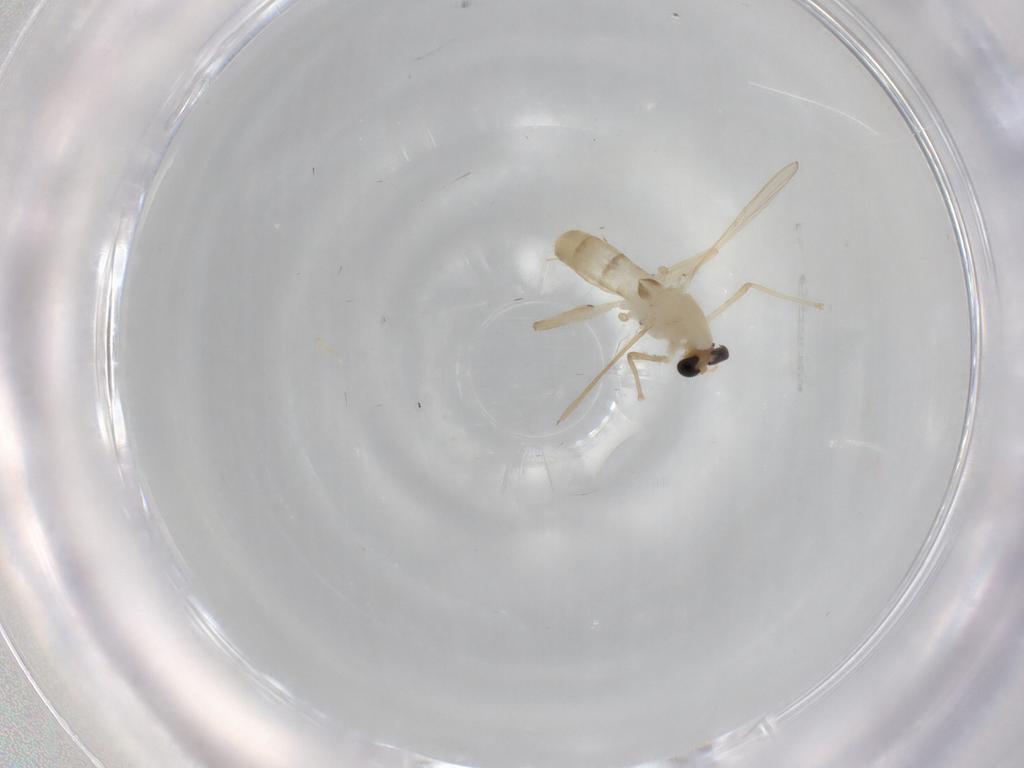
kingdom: Animalia
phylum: Arthropoda
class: Insecta
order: Diptera
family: Chironomidae
